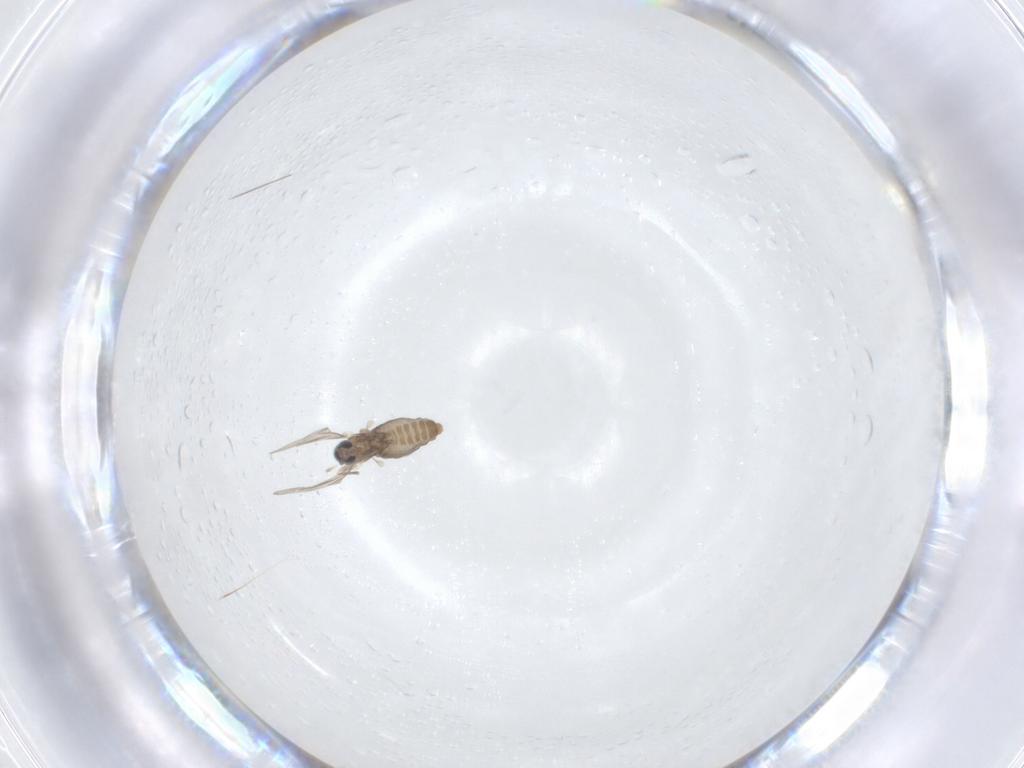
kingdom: Animalia
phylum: Arthropoda
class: Insecta
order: Diptera
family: Cecidomyiidae
